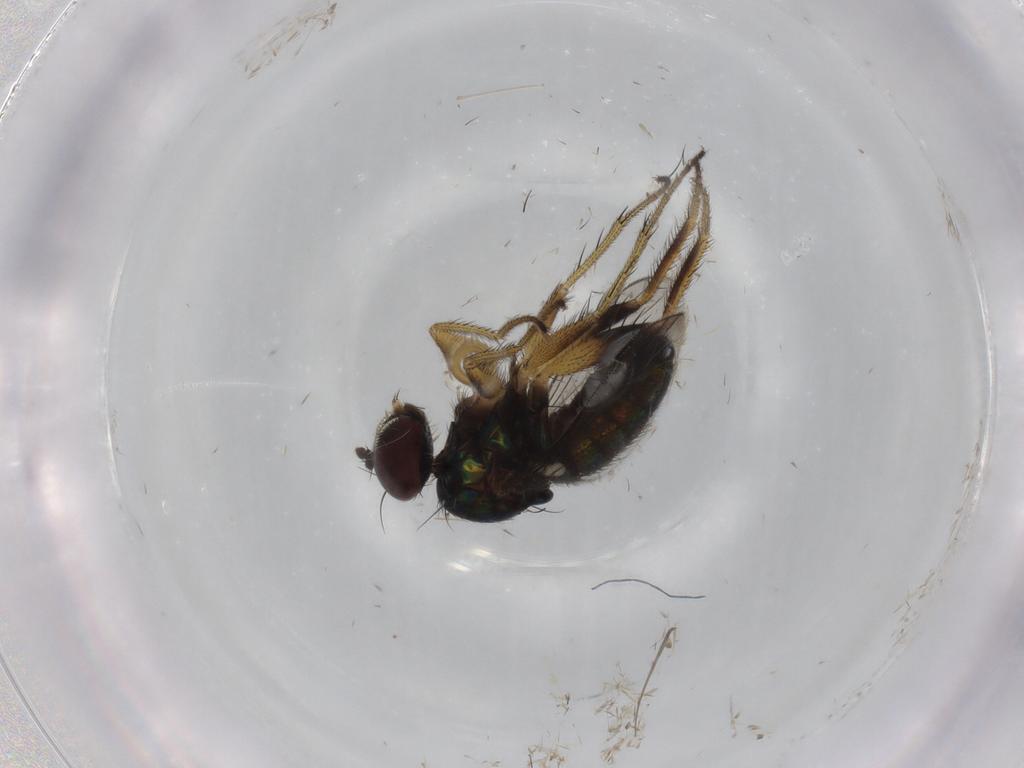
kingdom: Animalia
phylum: Arthropoda
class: Insecta
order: Diptera
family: Dolichopodidae
